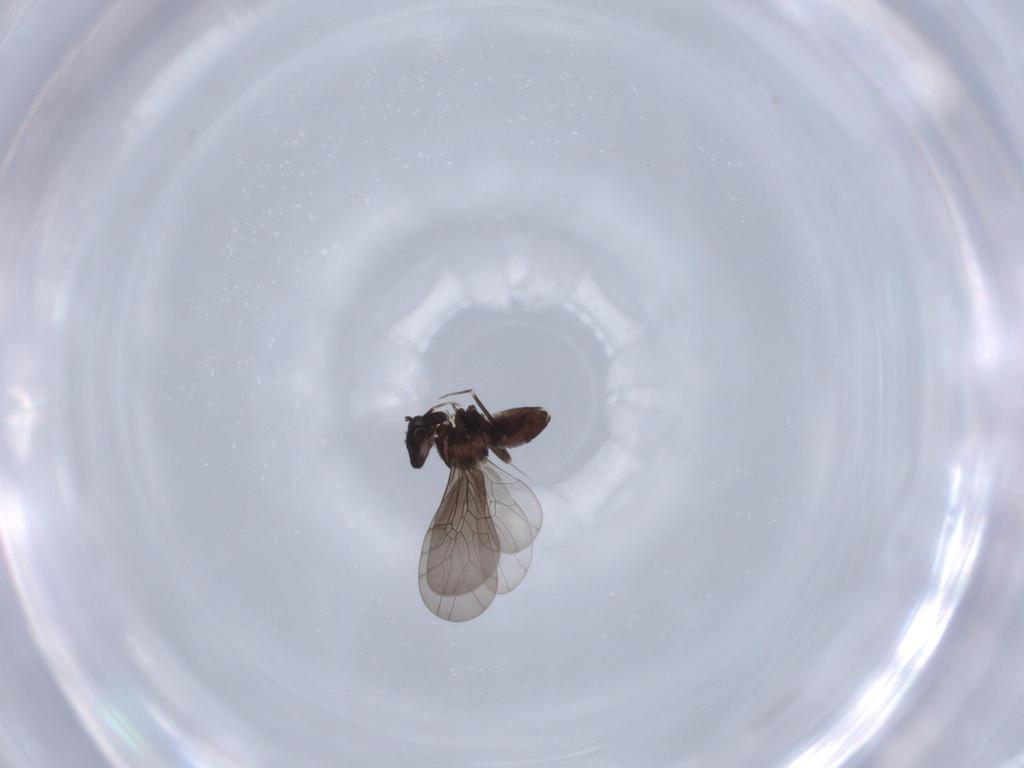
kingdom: Animalia
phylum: Arthropoda
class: Insecta
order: Psocodea
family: Lepidopsocidae
